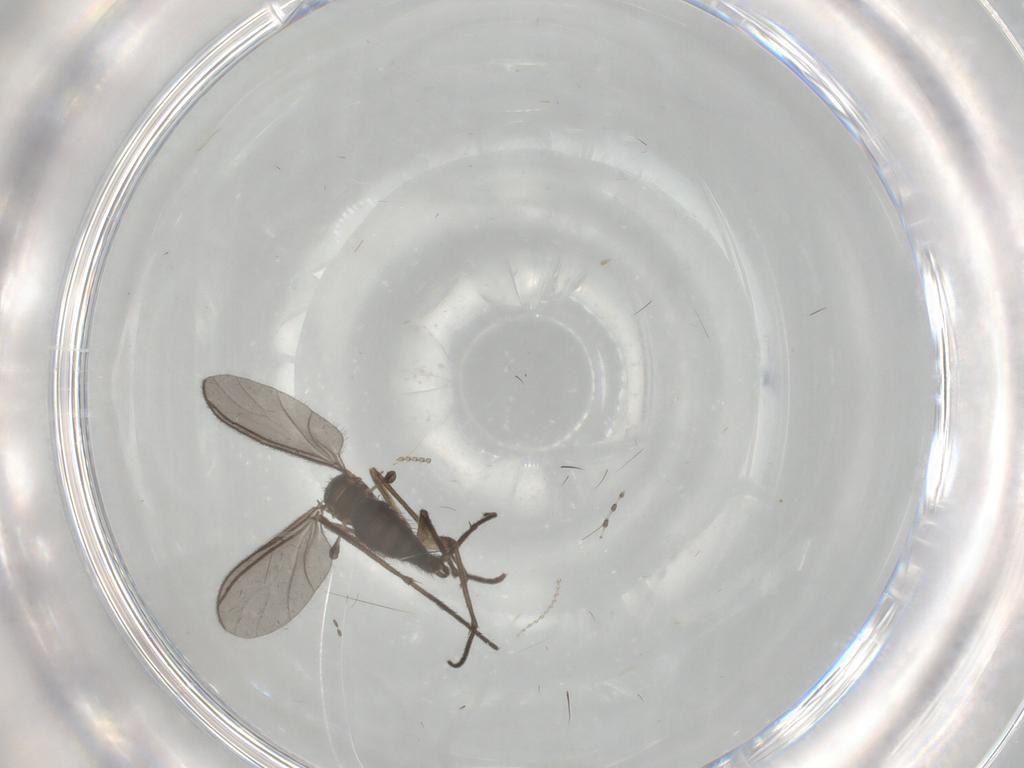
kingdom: Animalia
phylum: Arthropoda
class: Insecta
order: Diptera
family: Cecidomyiidae
